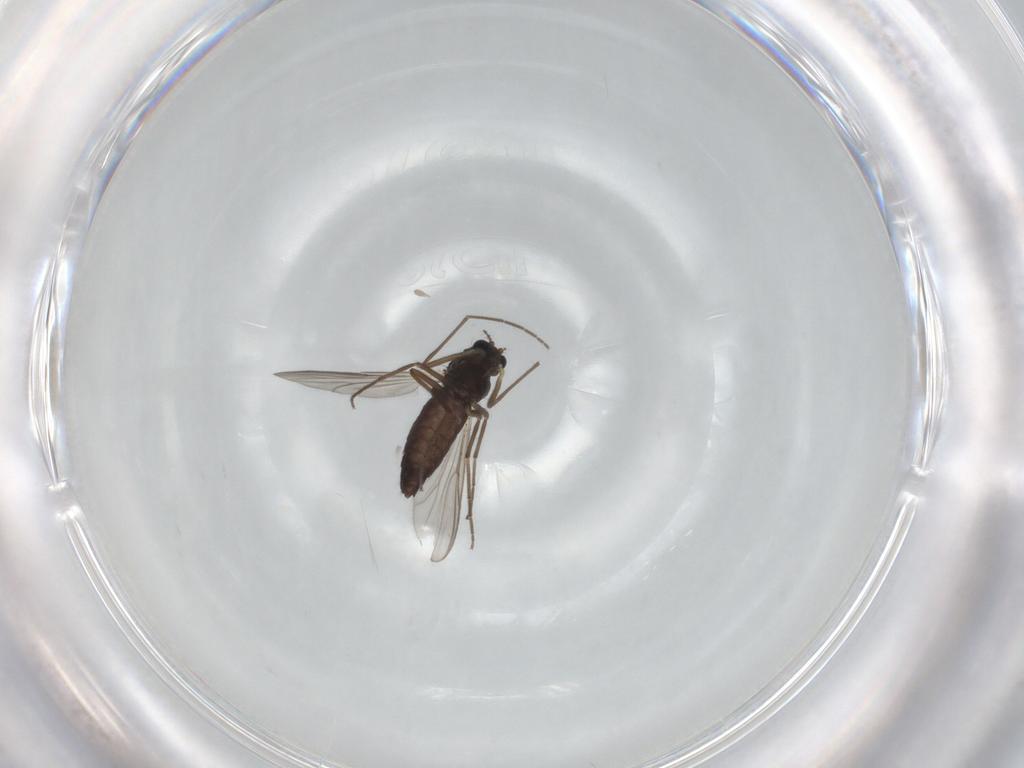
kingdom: Animalia
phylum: Arthropoda
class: Insecta
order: Diptera
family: Chironomidae
